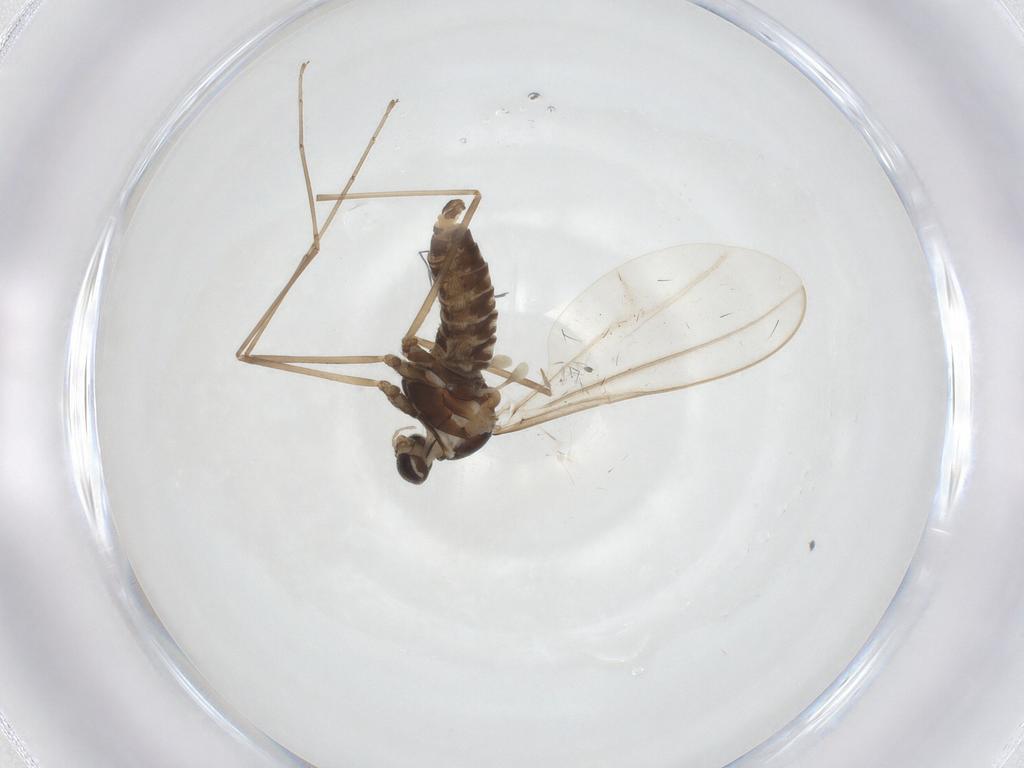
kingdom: Animalia
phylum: Arthropoda
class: Insecta
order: Diptera
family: Cecidomyiidae
